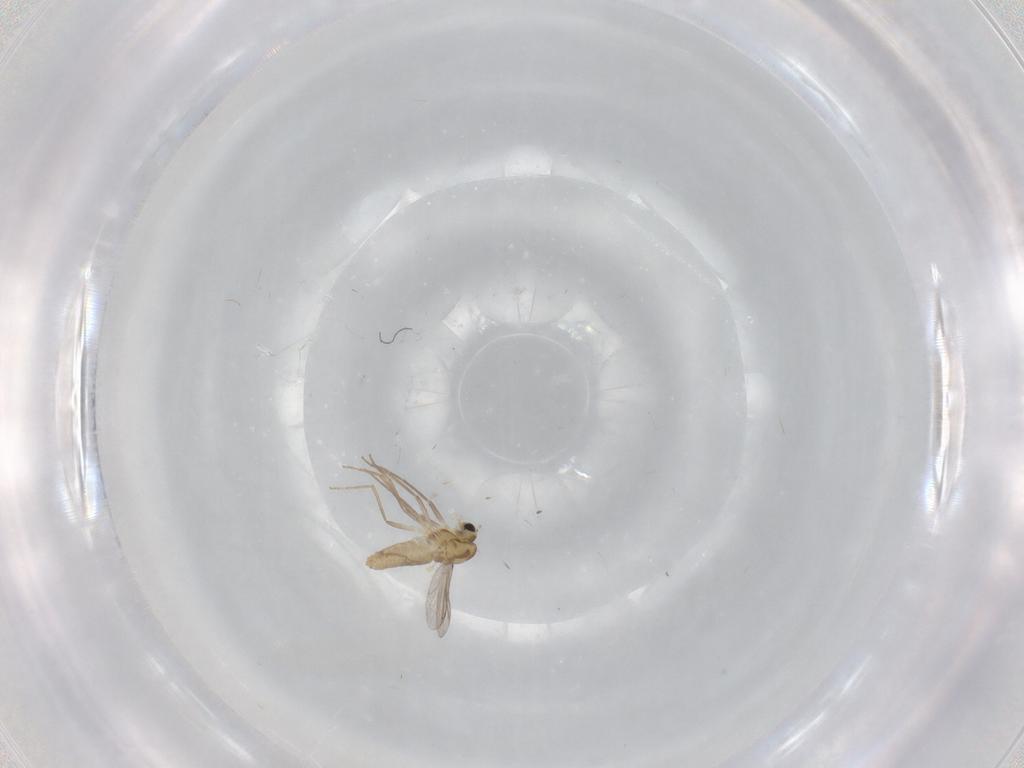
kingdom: Animalia
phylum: Arthropoda
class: Insecta
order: Diptera
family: Chironomidae
